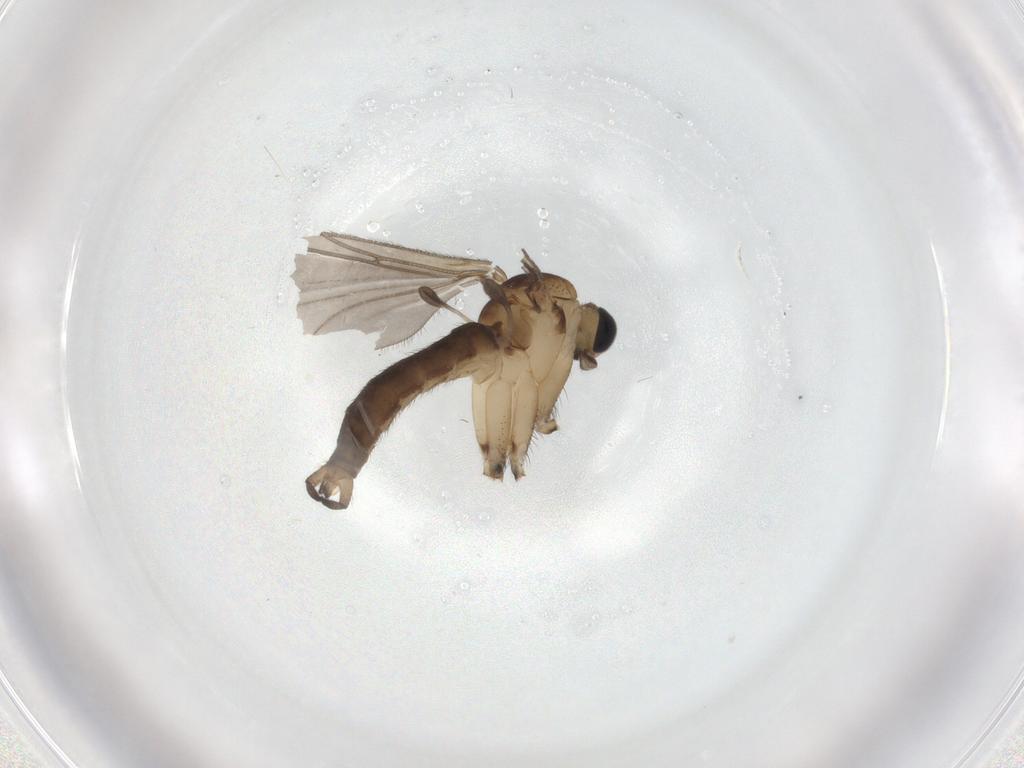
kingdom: Animalia
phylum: Arthropoda
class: Insecta
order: Diptera
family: Sciaridae
